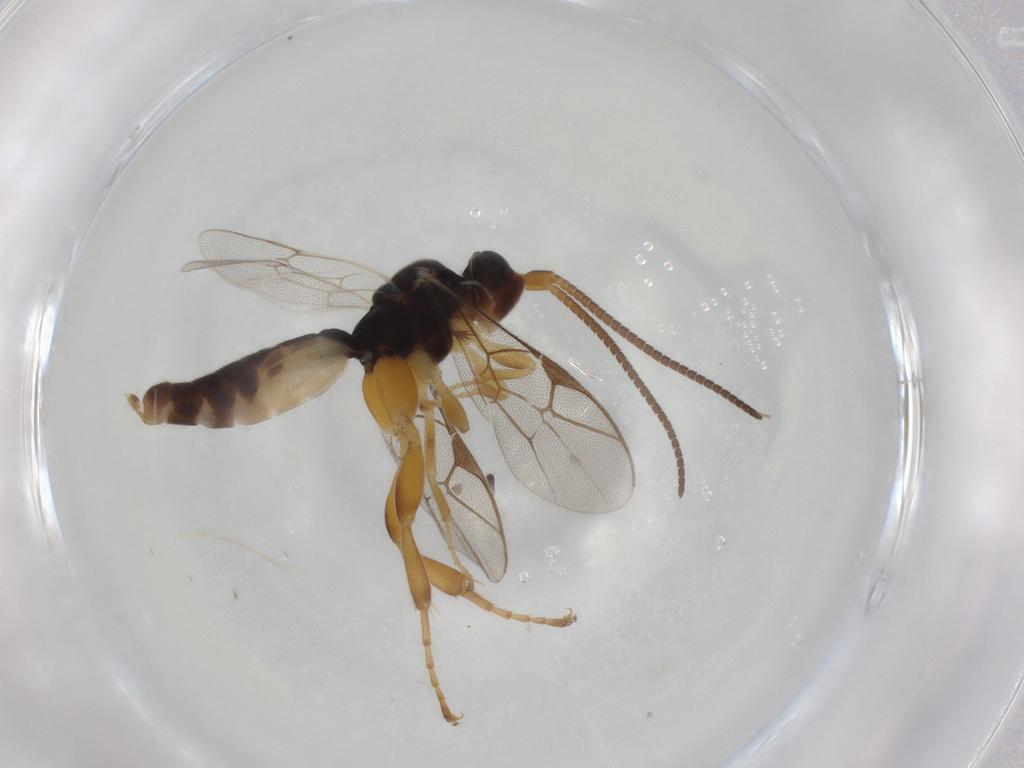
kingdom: Animalia
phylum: Arthropoda
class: Insecta
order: Hymenoptera
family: Ichneumonidae
